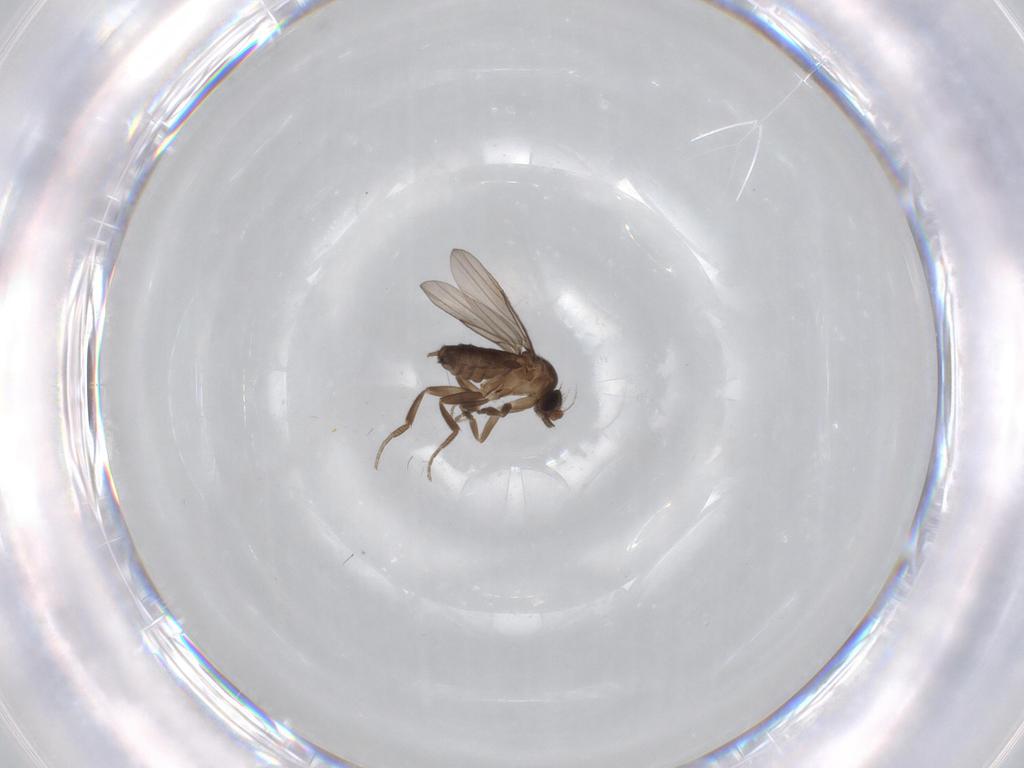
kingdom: Animalia
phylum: Arthropoda
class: Insecta
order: Diptera
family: Phoridae
